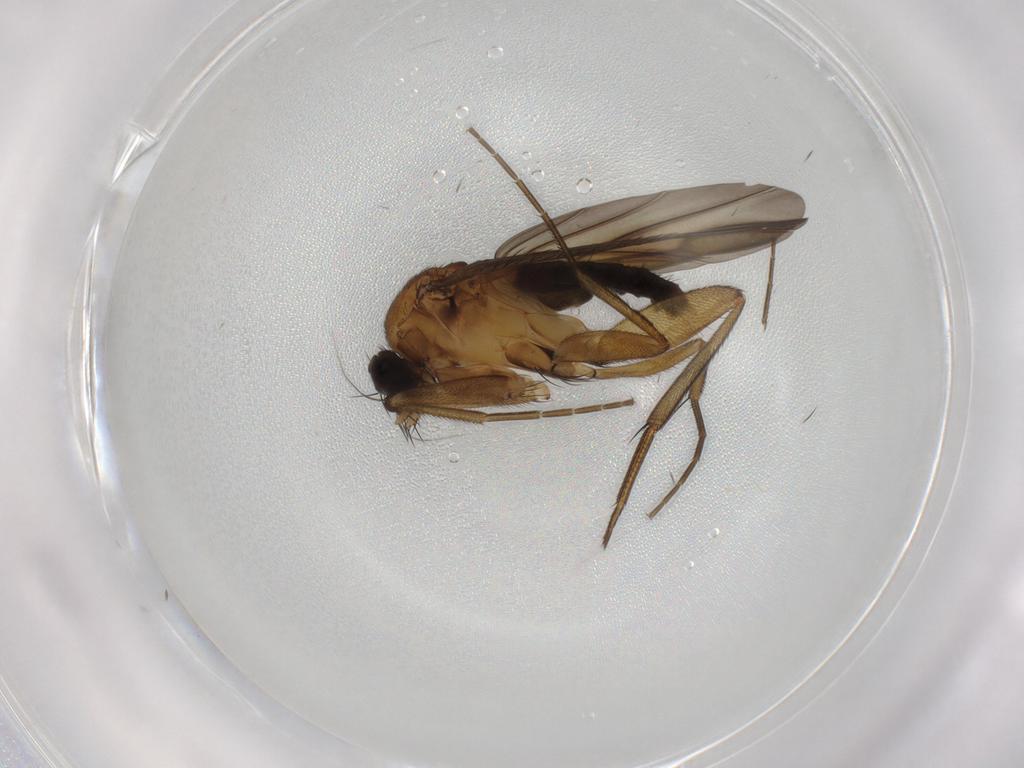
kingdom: Animalia
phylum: Arthropoda
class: Insecta
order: Diptera
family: Phoridae
